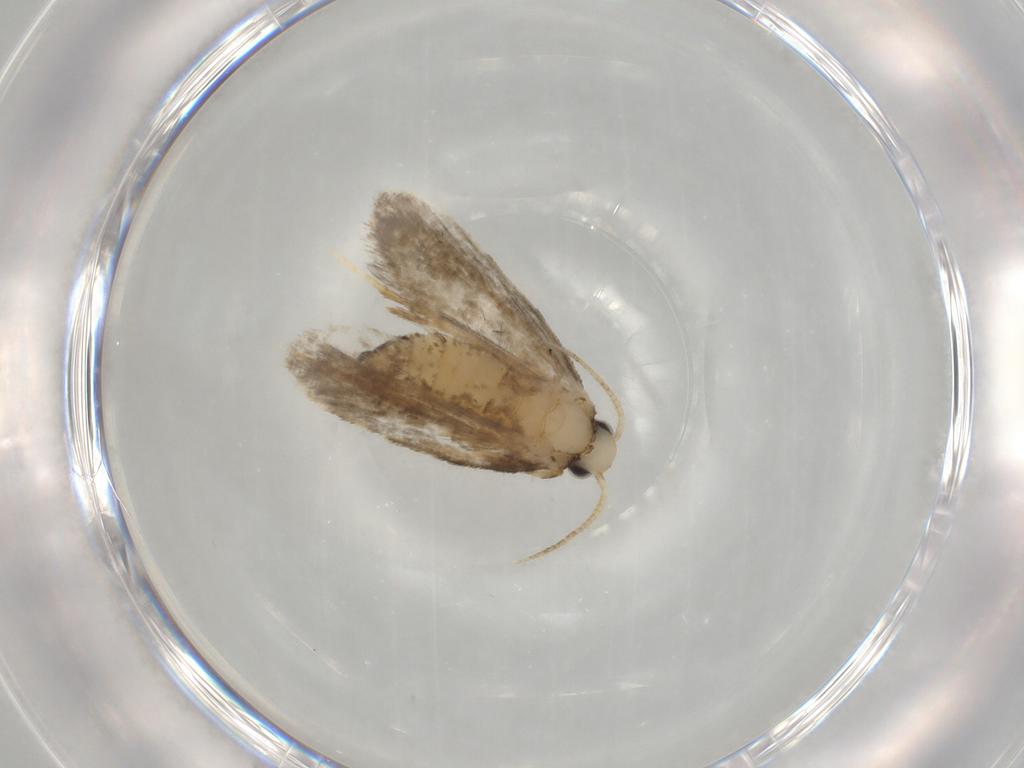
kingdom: Animalia
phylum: Arthropoda
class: Insecta
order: Lepidoptera
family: Psychidae
